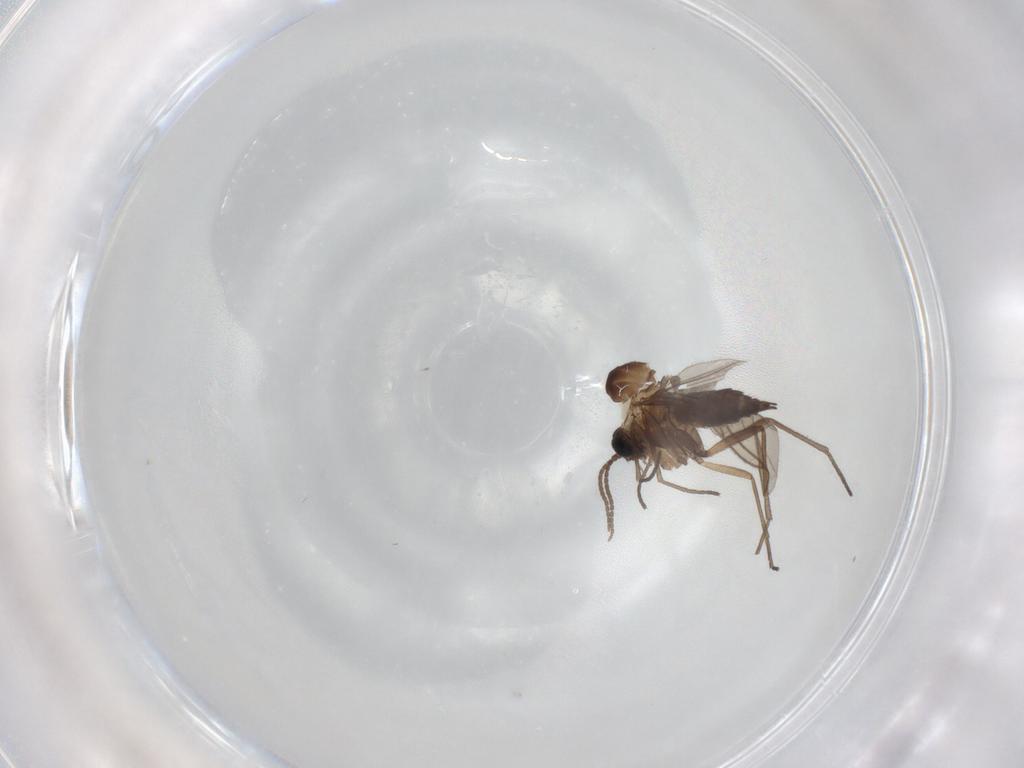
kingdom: Animalia
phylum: Arthropoda
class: Insecta
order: Diptera
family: Sciaridae
